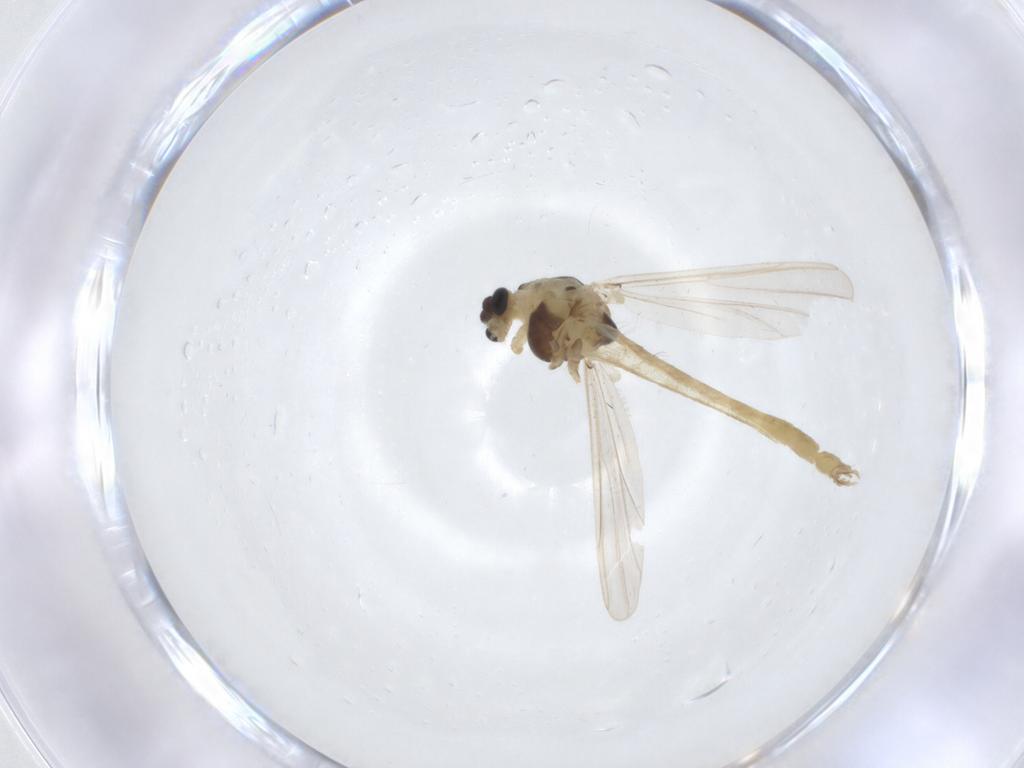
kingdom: Animalia
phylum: Arthropoda
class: Insecta
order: Diptera
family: Chironomidae
